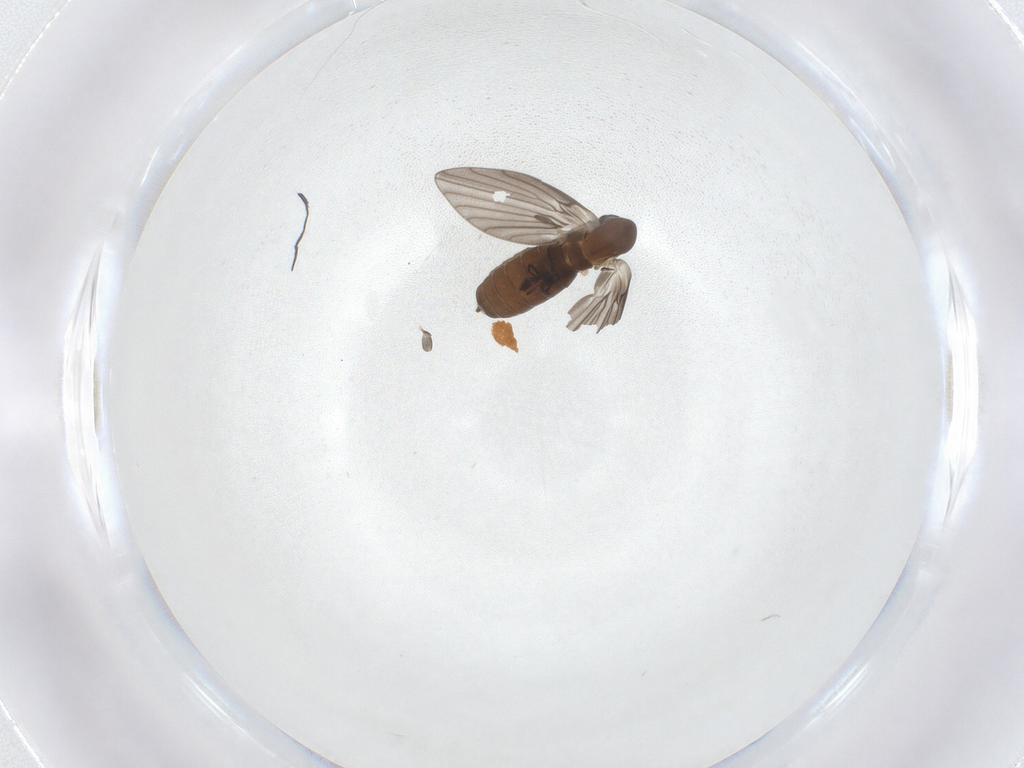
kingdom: Animalia
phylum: Arthropoda
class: Insecta
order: Diptera
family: Psychodidae
